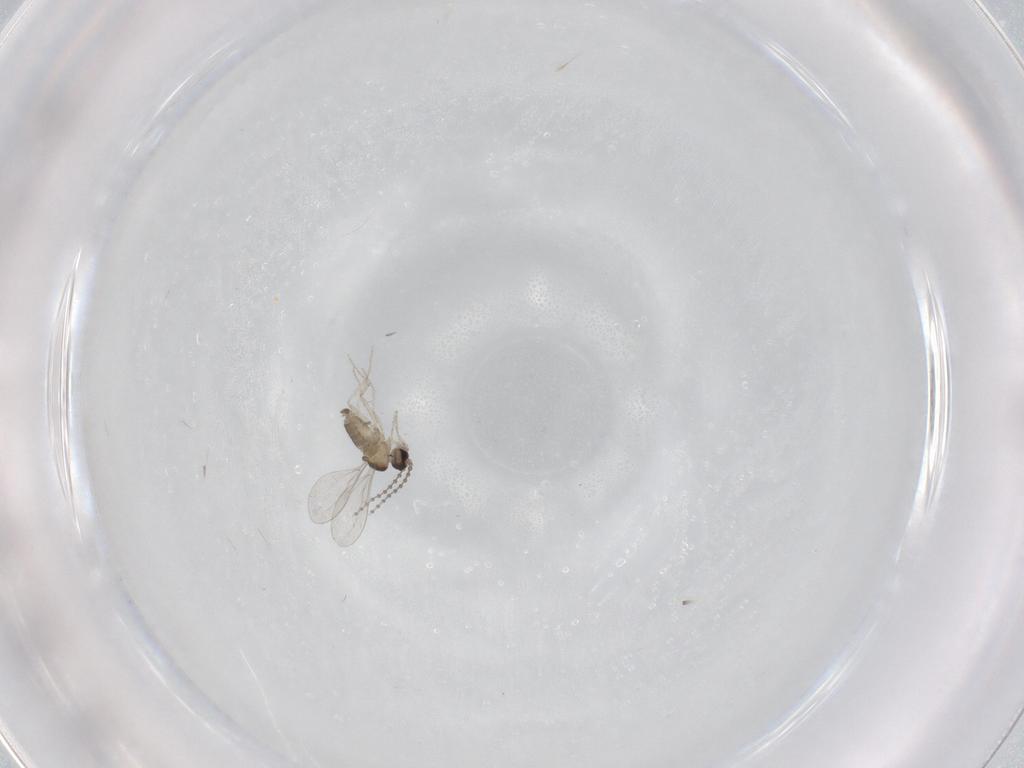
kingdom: Animalia
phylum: Arthropoda
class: Insecta
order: Diptera
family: Cecidomyiidae
